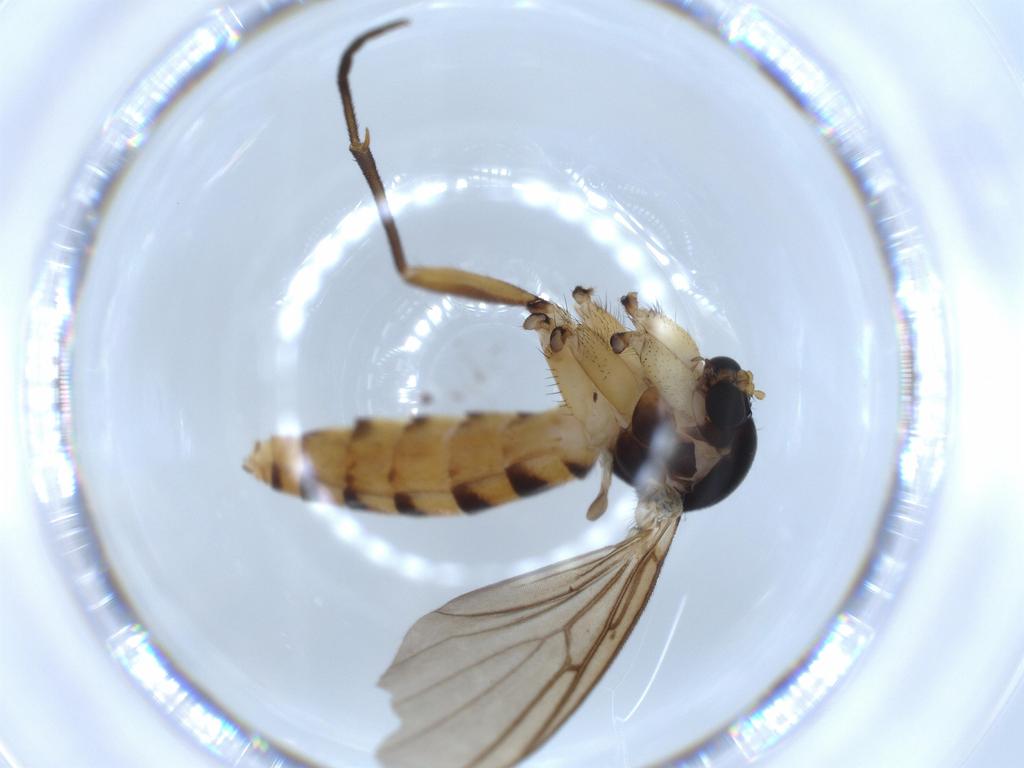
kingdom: Animalia
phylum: Arthropoda
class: Insecta
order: Diptera
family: Mycetophilidae
